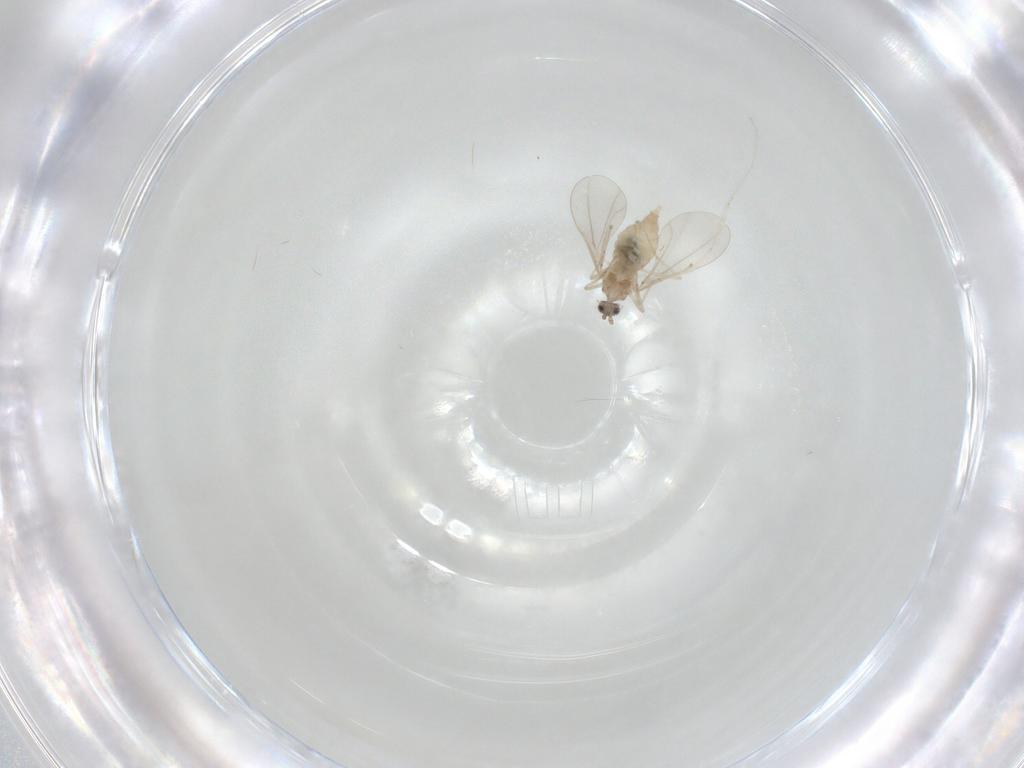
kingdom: Animalia
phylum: Arthropoda
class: Insecta
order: Diptera
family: Cecidomyiidae
